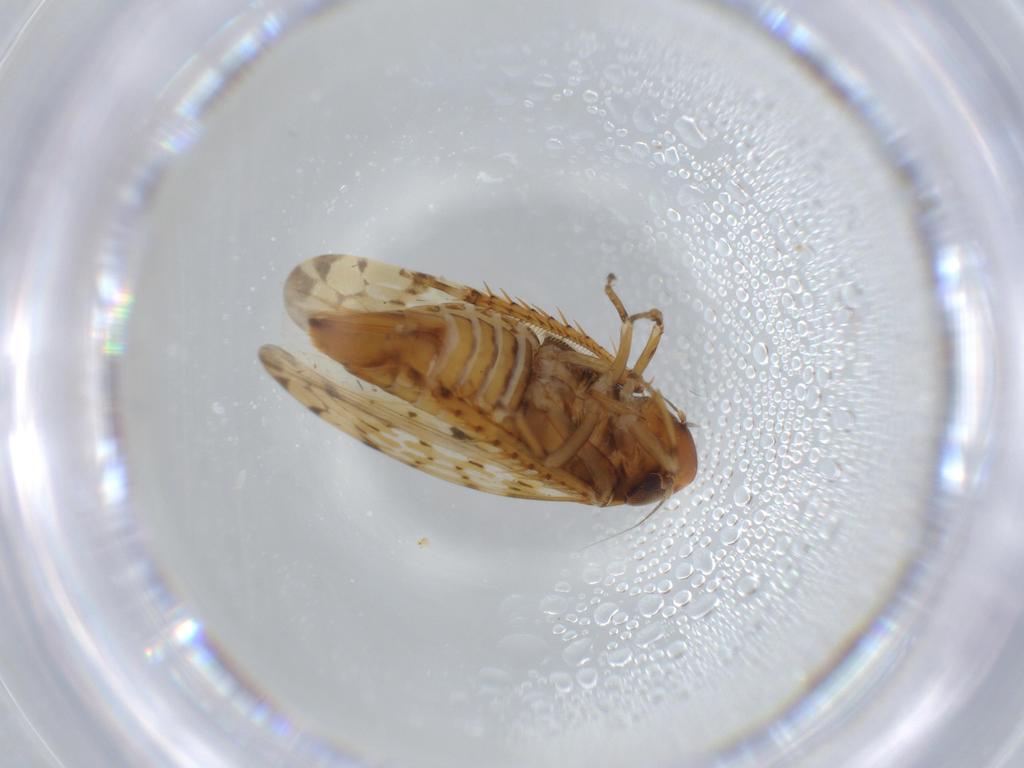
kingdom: Animalia
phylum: Arthropoda
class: Insecta
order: Hemiptera
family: Cicadellidae
